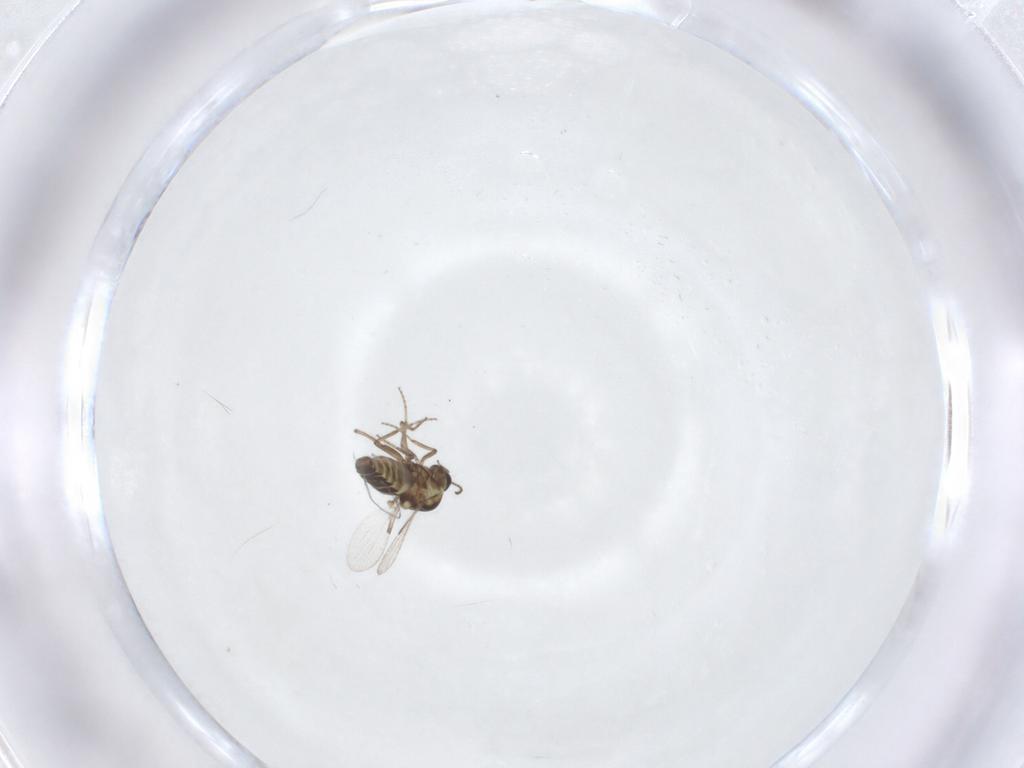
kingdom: Animalia
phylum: Arthropoda
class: Insecta
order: Diptera
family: Ceratopogonidae
